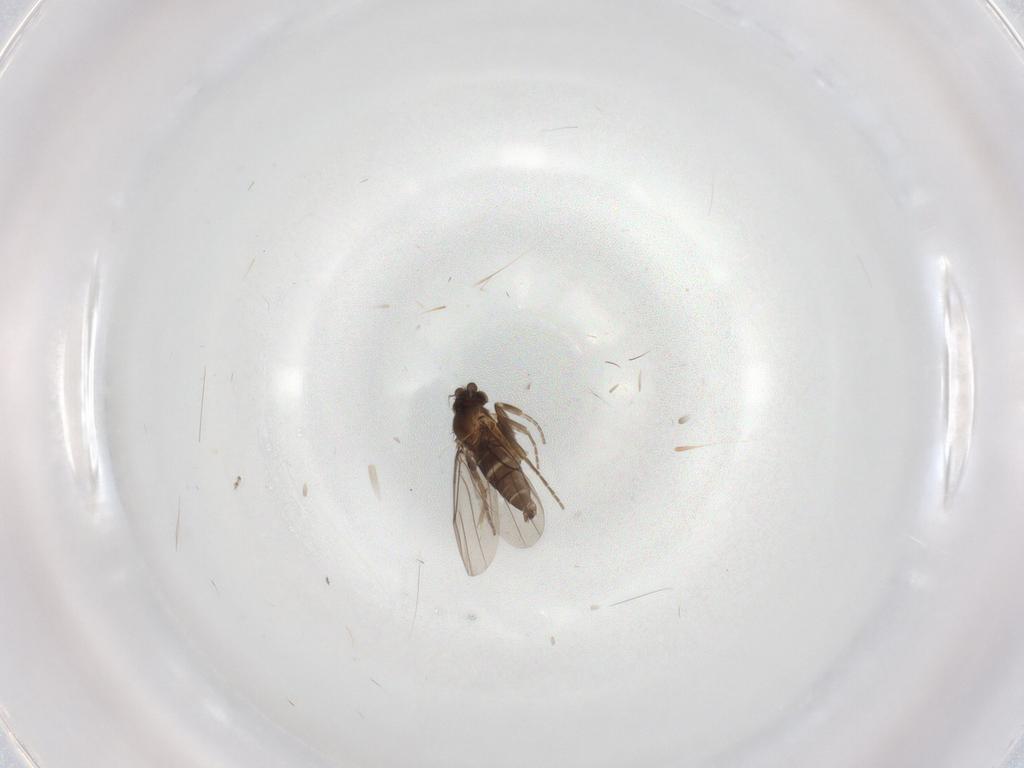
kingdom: Animalia
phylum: Arthropoda
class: Insecta
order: Diptera
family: Phoridae
